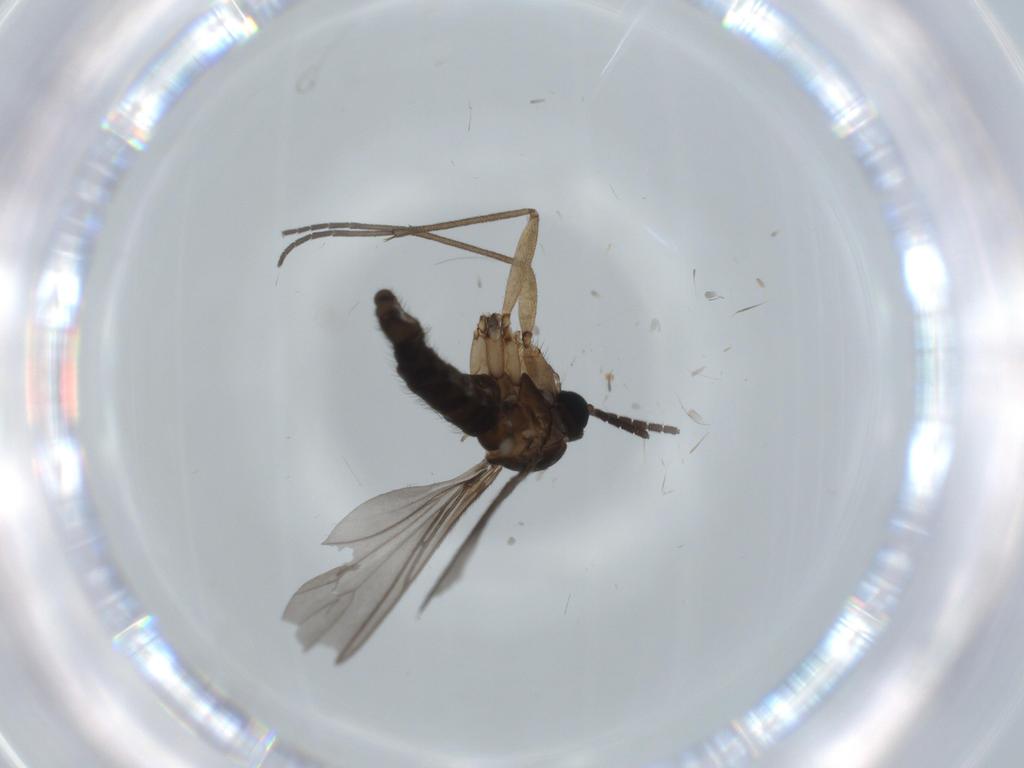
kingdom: Animalia
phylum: Arthropoda
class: Insecta
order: Diptera
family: Sciaridae
